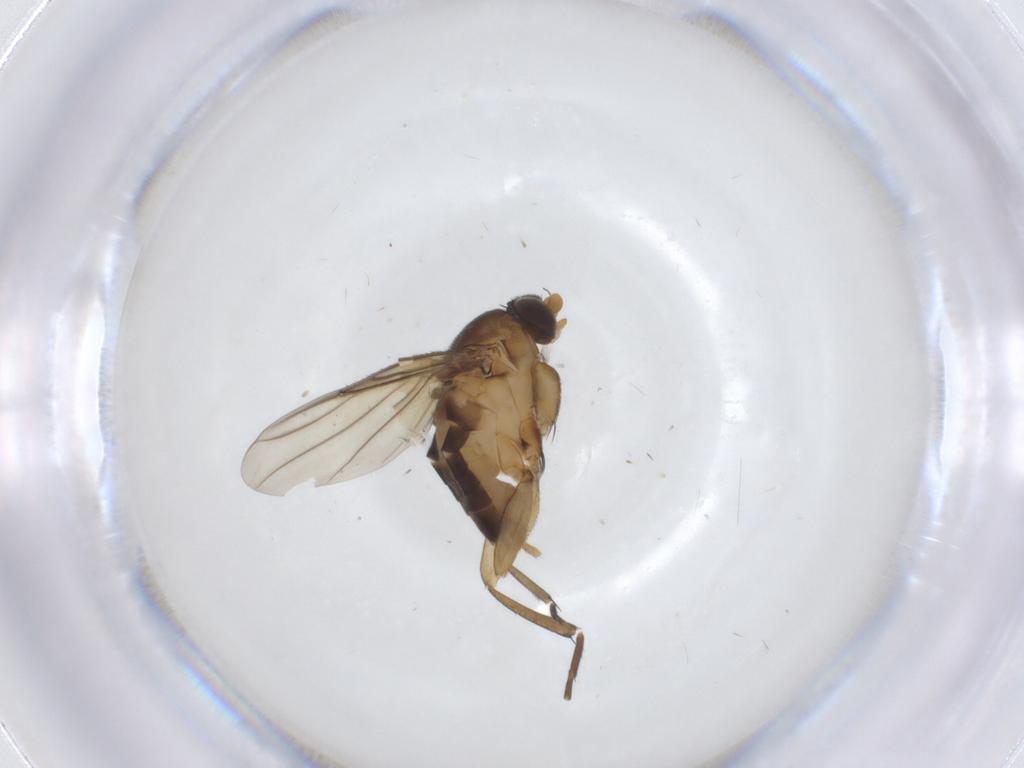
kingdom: Animalia
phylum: Arthropoda
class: Insecta
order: Diptera
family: Phoridae
